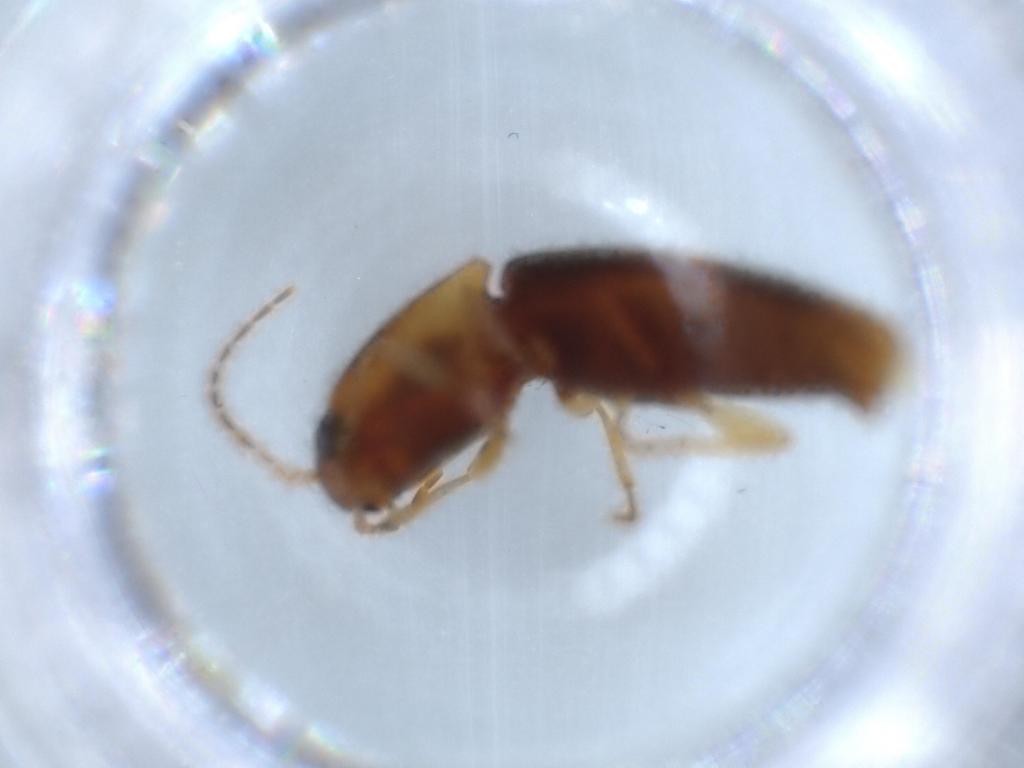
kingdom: Animalia
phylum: Arthropoda
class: Insecta
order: Coleoptera
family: Elateridae
